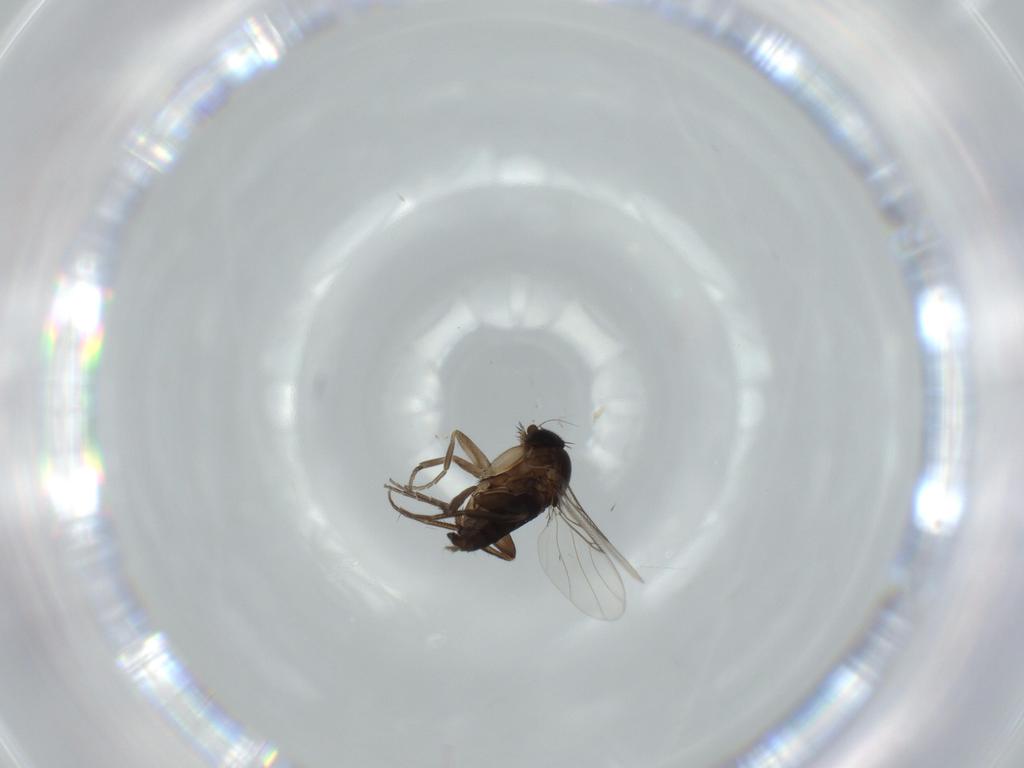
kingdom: Animalia
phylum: Arthropoda
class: Insecta
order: Diptera
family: Phoridae
